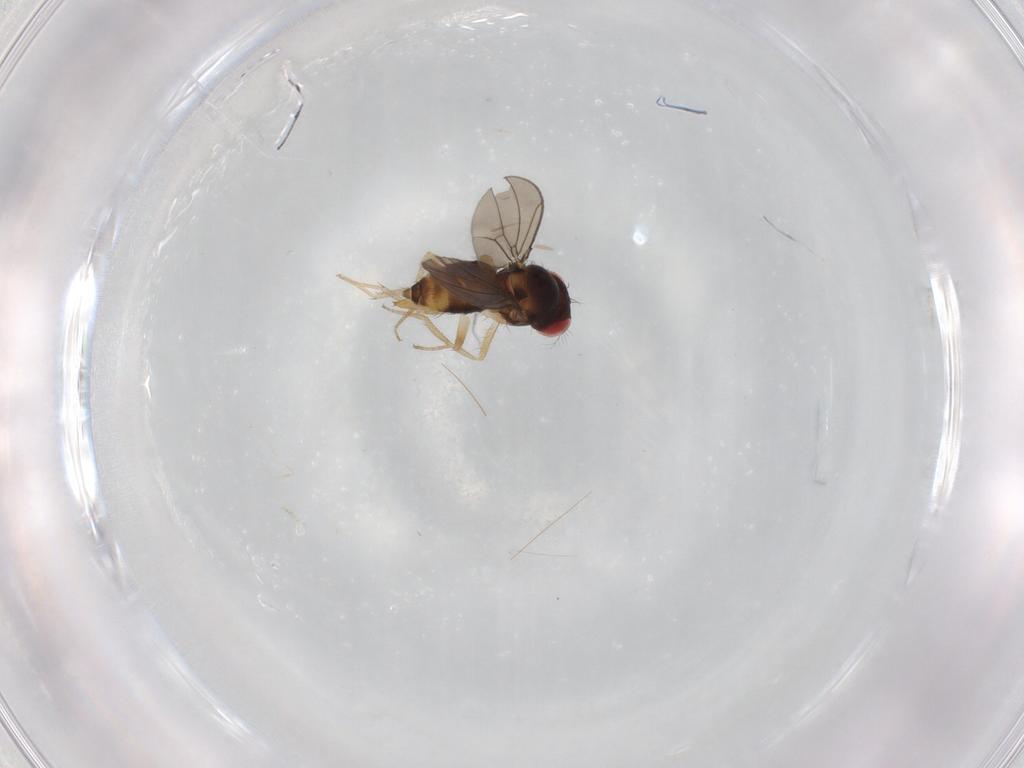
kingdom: Animalia
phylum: Arthropoda
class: Insecta
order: Diptera
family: Drosophilidae
